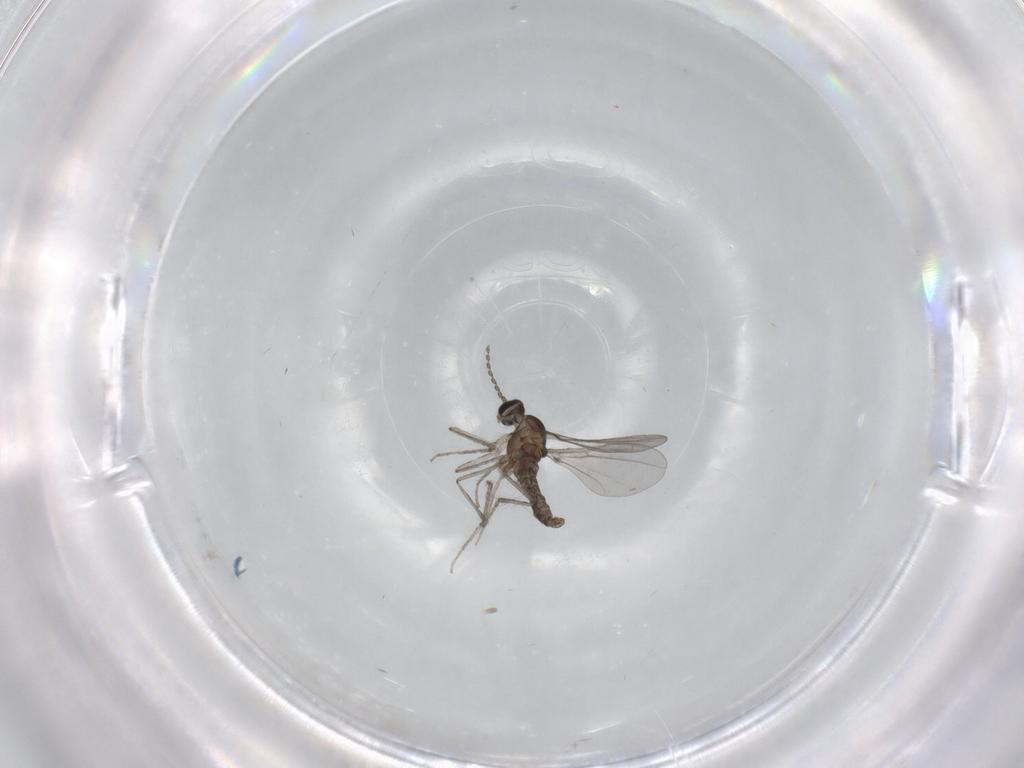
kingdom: Animalia
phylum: Arthropoda
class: Insecta
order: Diptera
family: Cecidomyiidae
